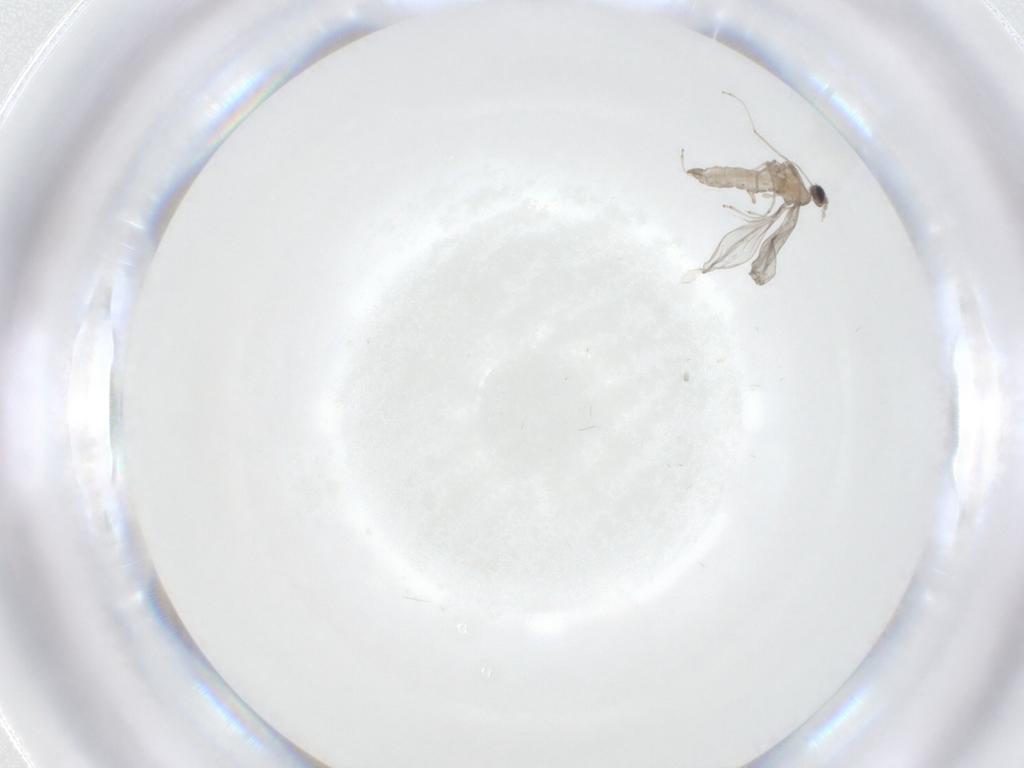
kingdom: Animalia
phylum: Arthropoda
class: Insecta
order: Diptera
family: Cecidomyiidae
